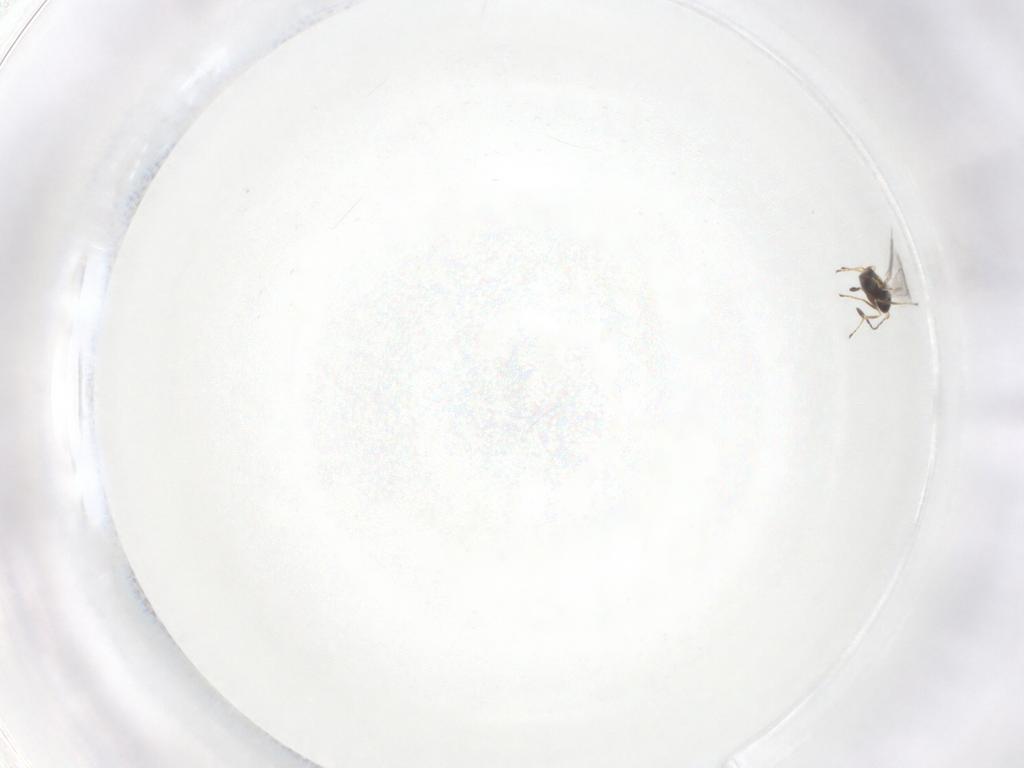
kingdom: Animalia
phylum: Arthropoda
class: Insecta
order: Hymenoptera
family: Mymaridae
